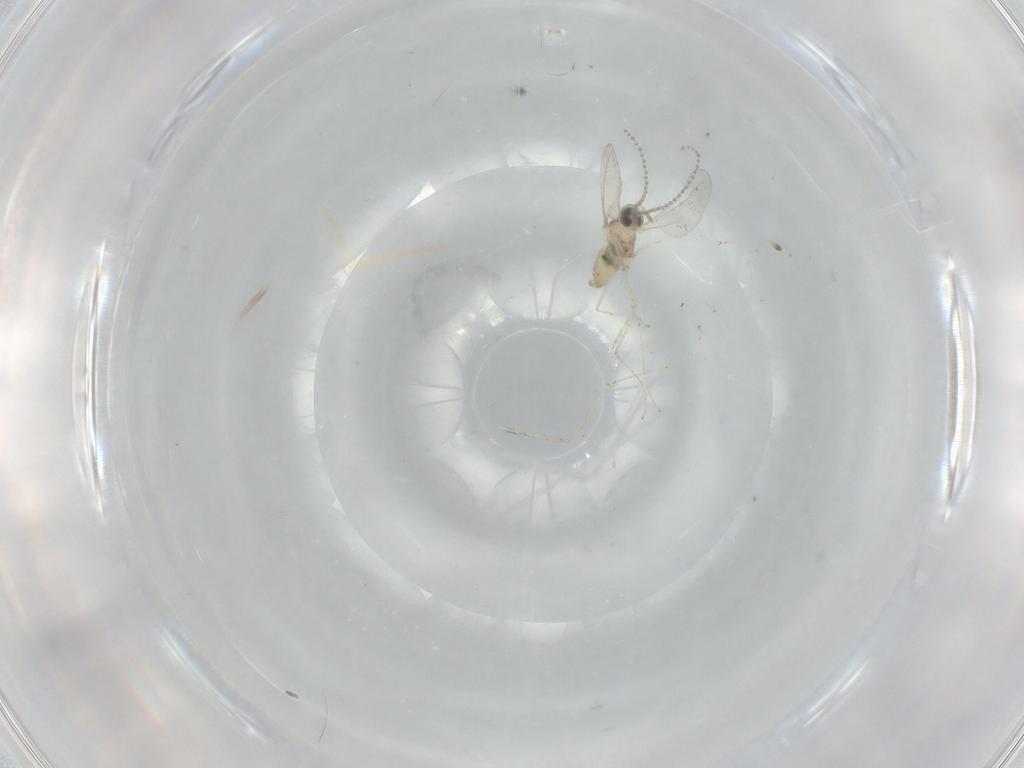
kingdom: Animalia
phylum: Arthropoda
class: Insecta
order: Diptera
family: Cecidomyiidae
